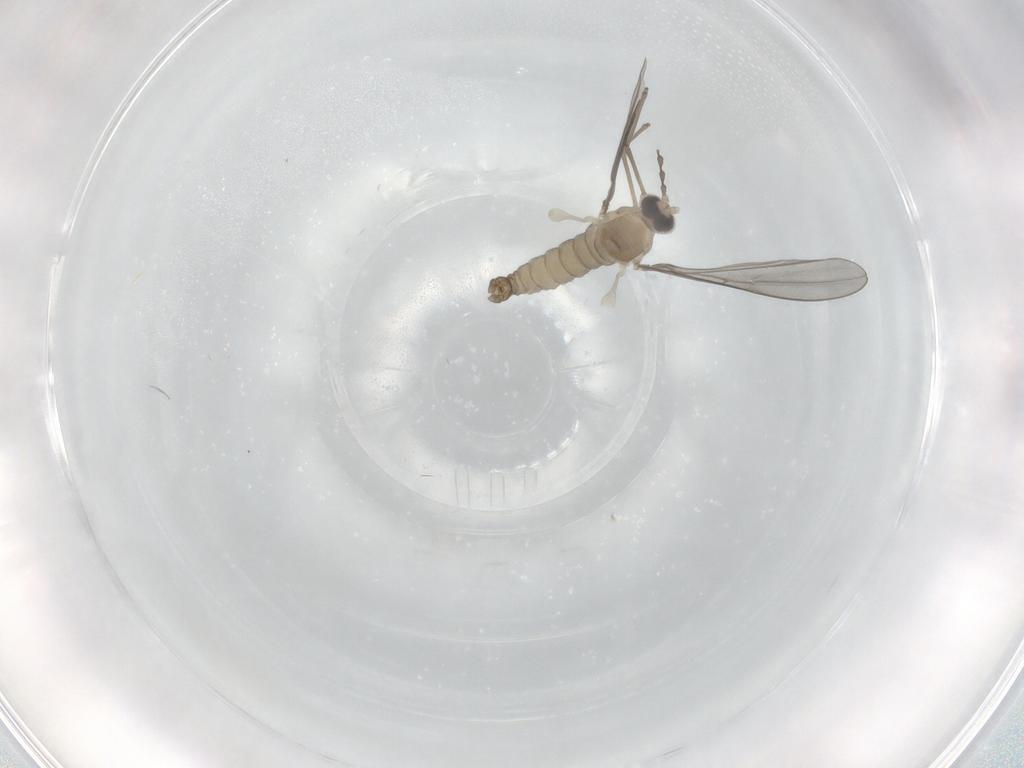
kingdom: Animalia
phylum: Arthropoda
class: Insecta
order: Diptera
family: Cecidomyiidae
